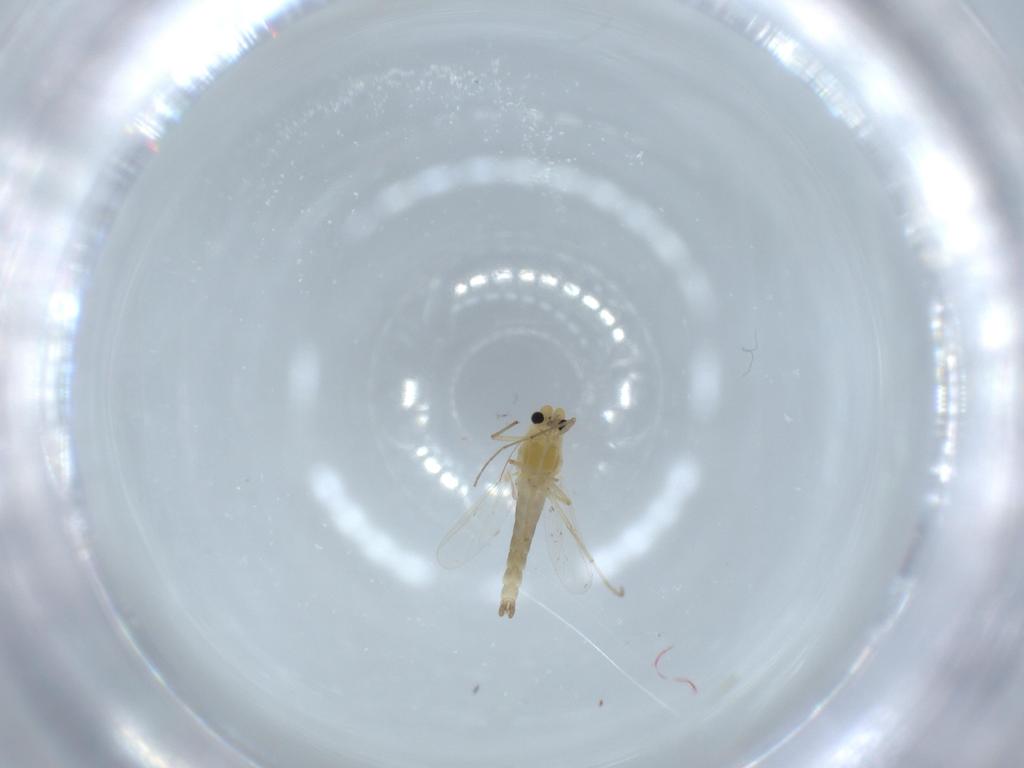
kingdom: Animalia
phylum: Arthropoda
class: Insecta
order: Diptera
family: Chironomidae
